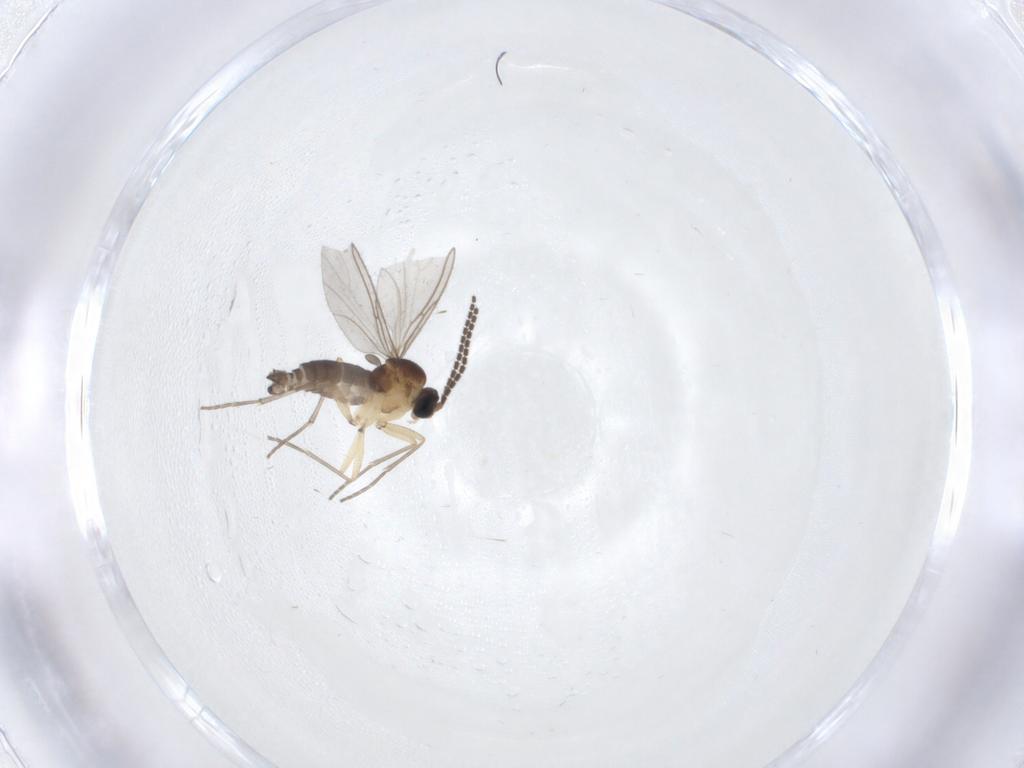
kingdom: Animalia
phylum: Arthropoda
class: Insecta
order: Diptera
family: Sciaridae
